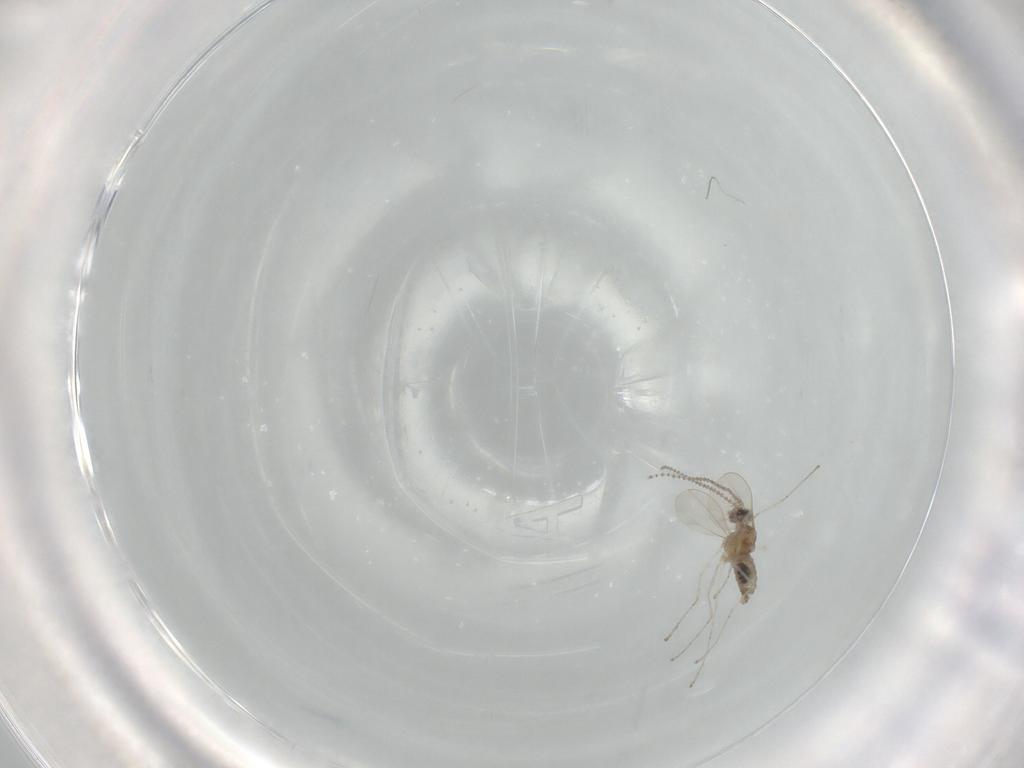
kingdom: Animalia
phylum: Arthropoda
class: Insecta
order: Diptera
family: Cecidomyiidae
